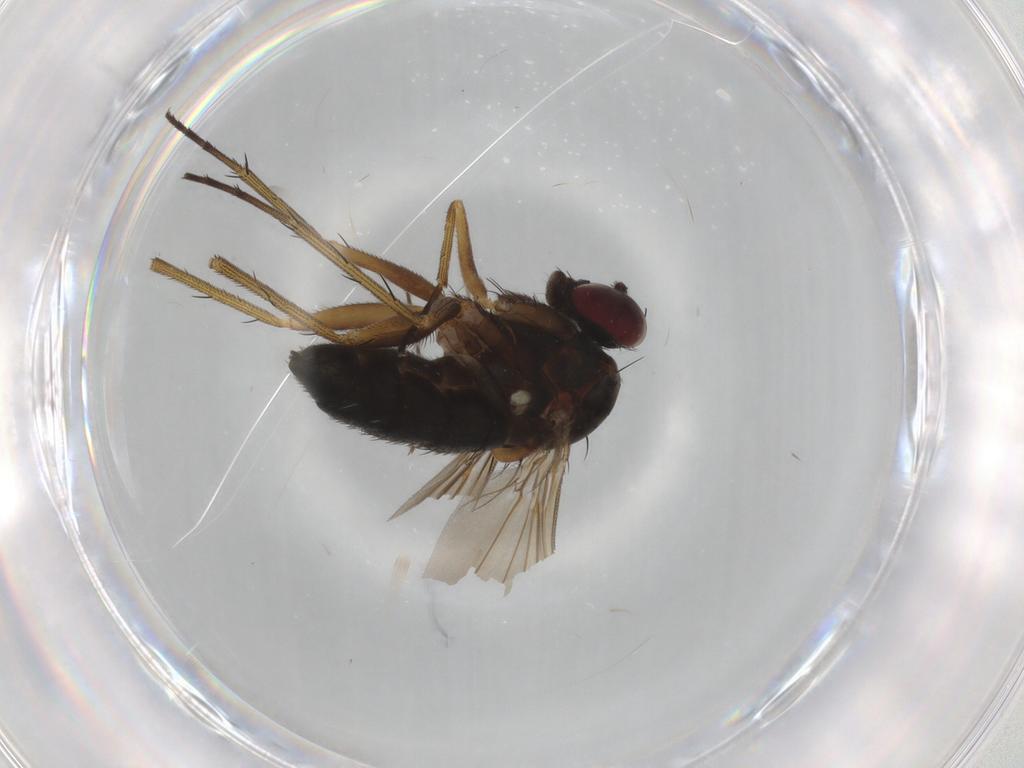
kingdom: Animalia
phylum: Arthropoda
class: Insecta
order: Diptera
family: Dolichopodidae
